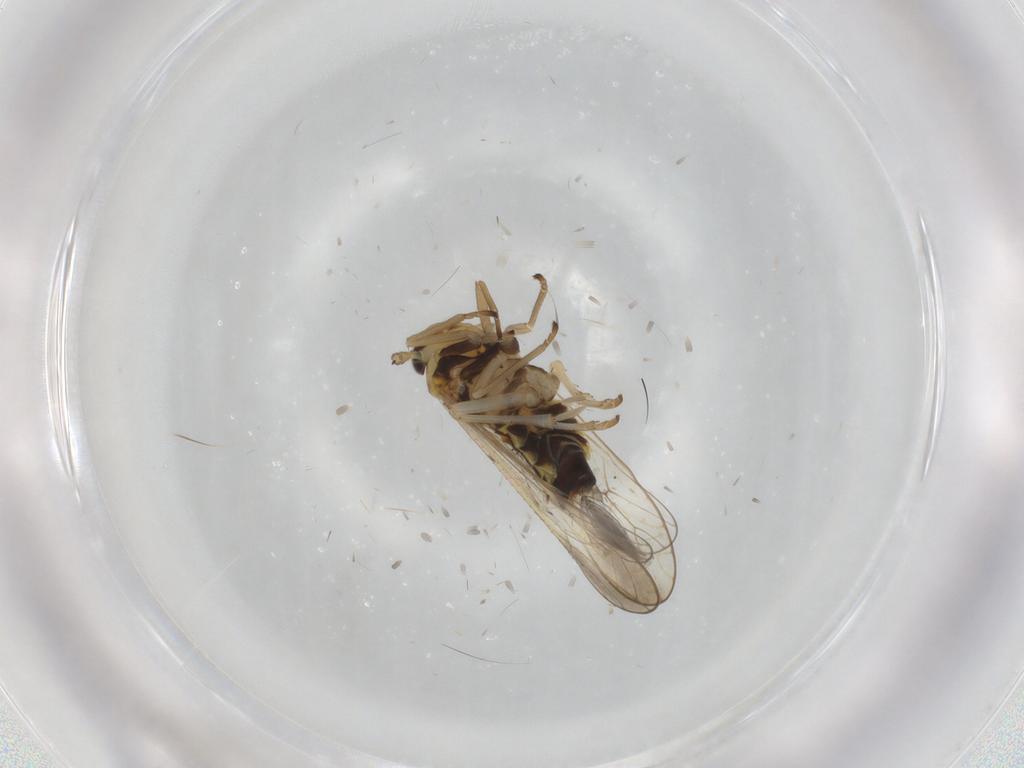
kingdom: Animalia
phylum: Arthropoda
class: Insecta
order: Hemiptera
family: Delphacidae
